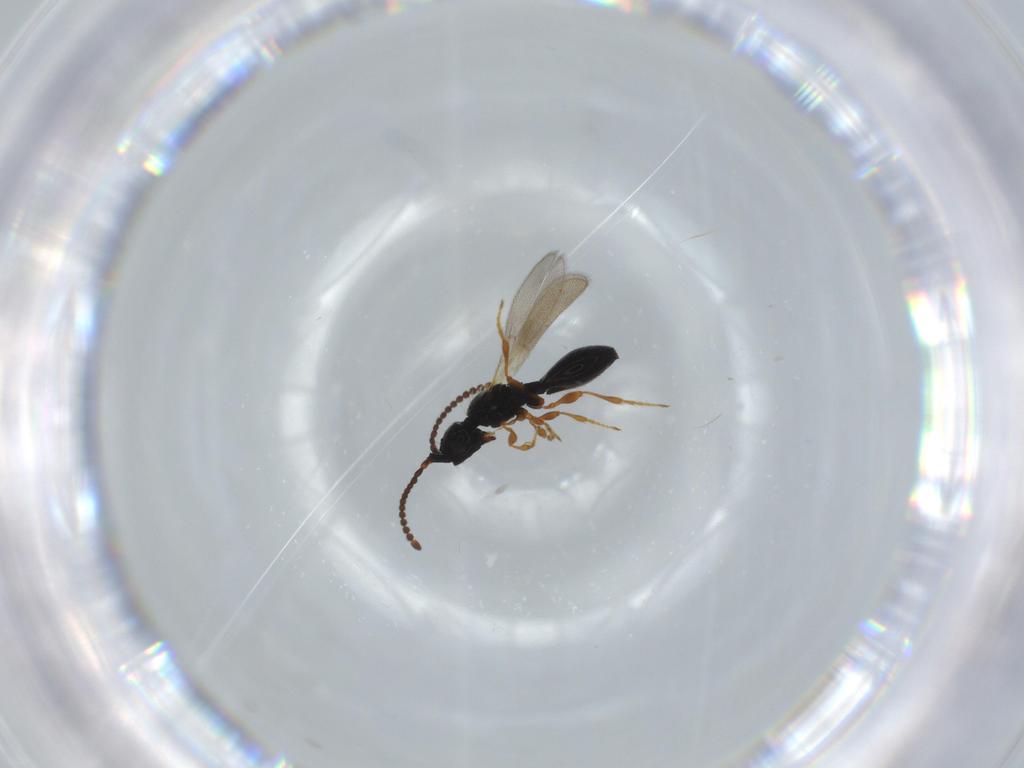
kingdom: Animalia
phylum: Arthropoda
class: Insecta
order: Hymenoptera
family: Diapriidae
